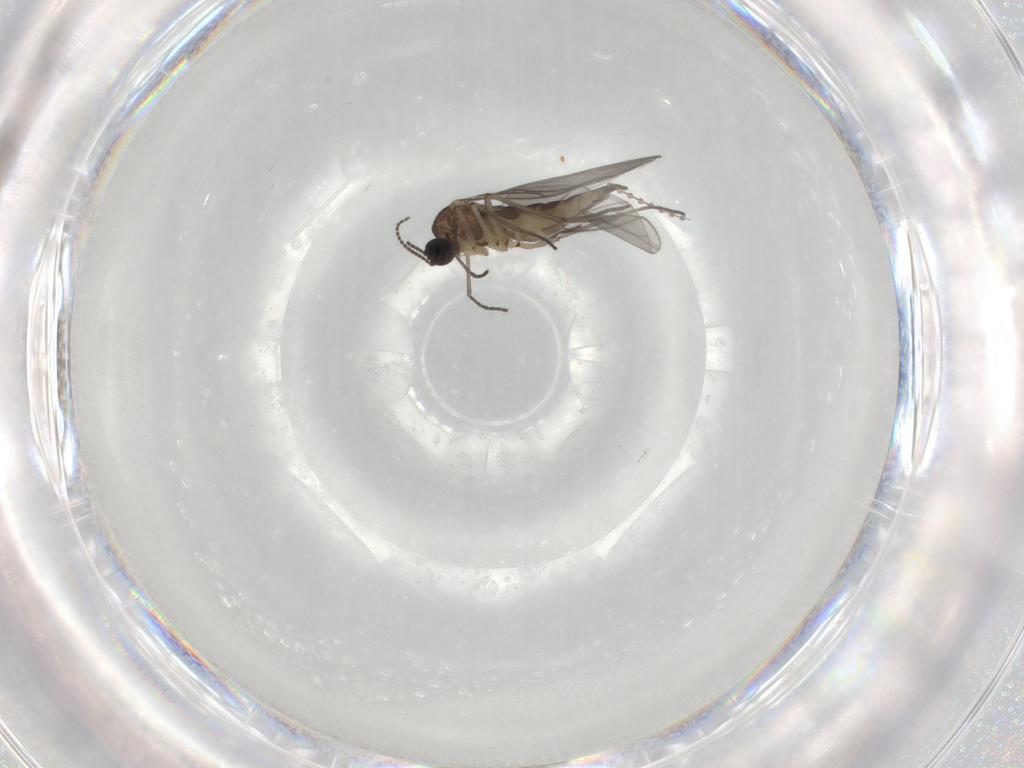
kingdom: Animalia
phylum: Arthropoda
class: Insecta
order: Diptera
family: Sciaridae
